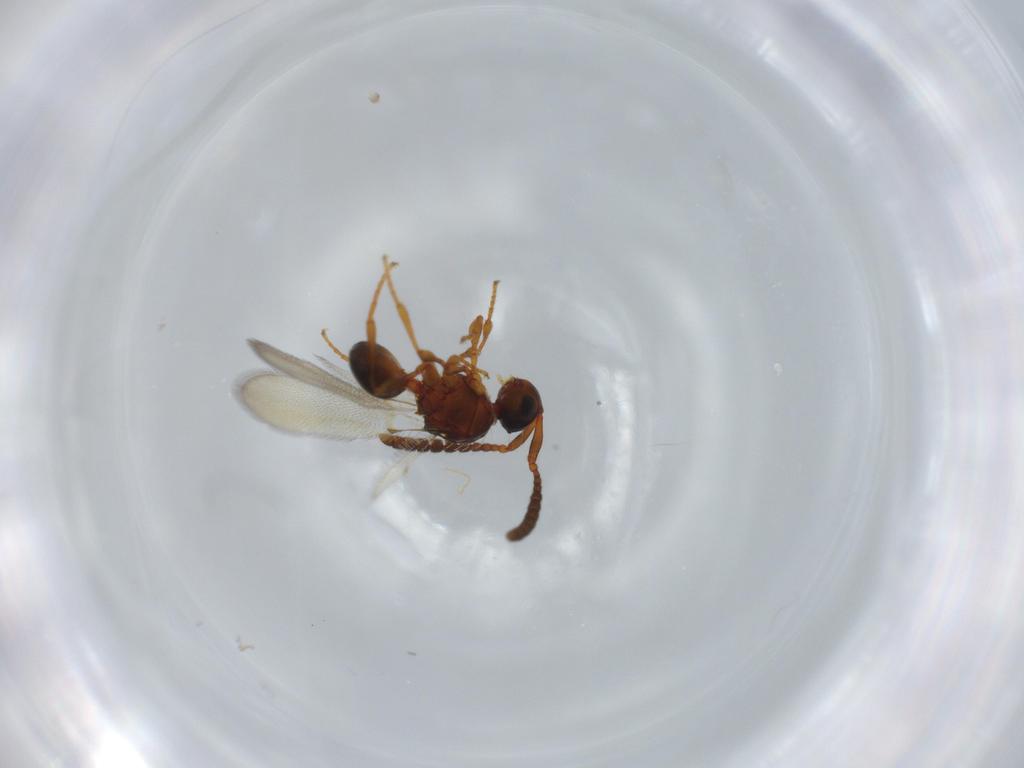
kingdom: Animalia
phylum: Arthropoda
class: Insecta
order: Hymenoptera
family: Diapriidae
